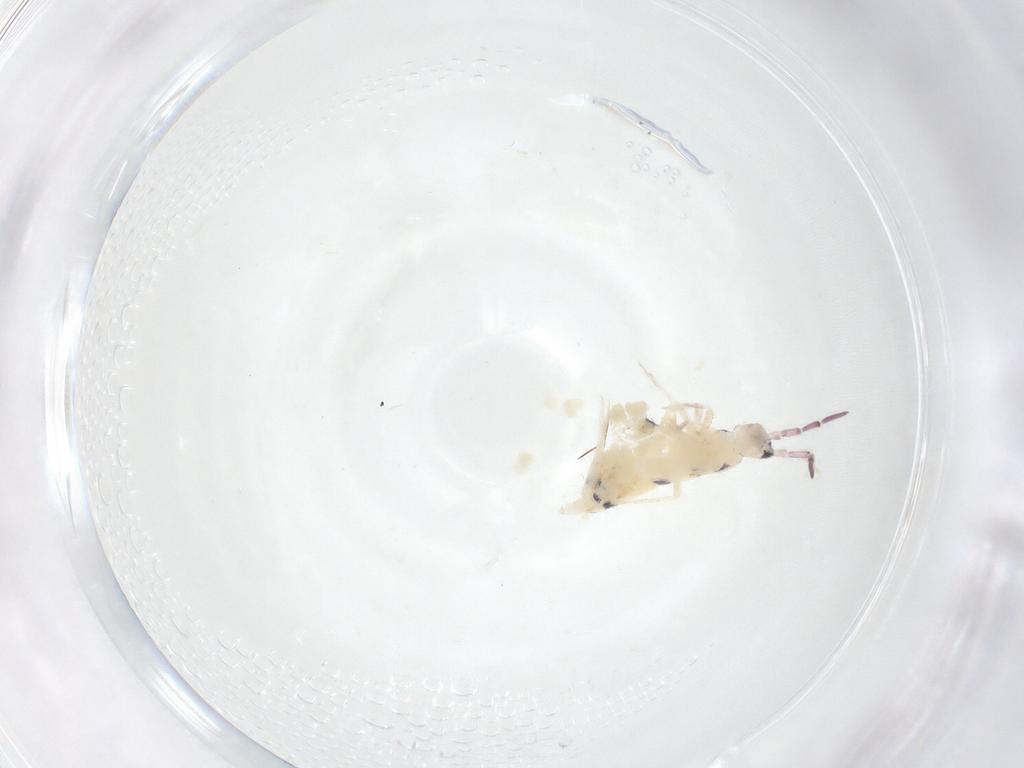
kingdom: Animalia
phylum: Arthropoda
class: Collembola
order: Entomobryomorpha
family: Entomobryidae
